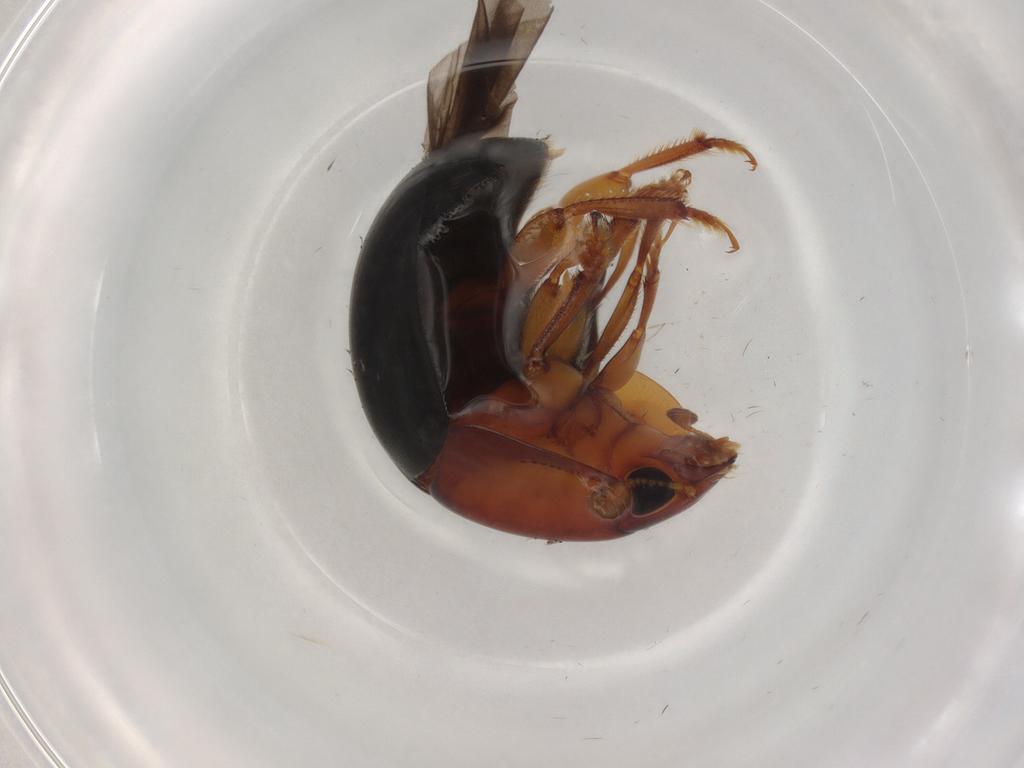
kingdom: Animalia
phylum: Arthropoda
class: Insecta
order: Coleoptera
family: Nitidulidae
